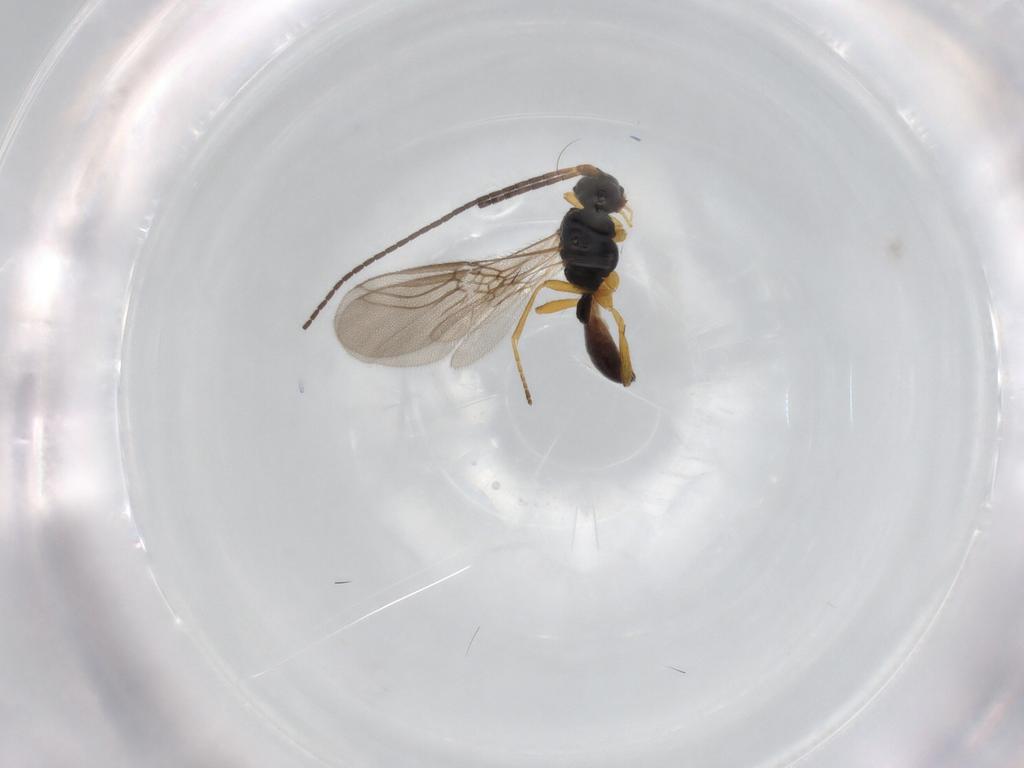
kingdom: Animalia
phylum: Arthropoda
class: Insecta
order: Hymenoptera
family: Braconidae
